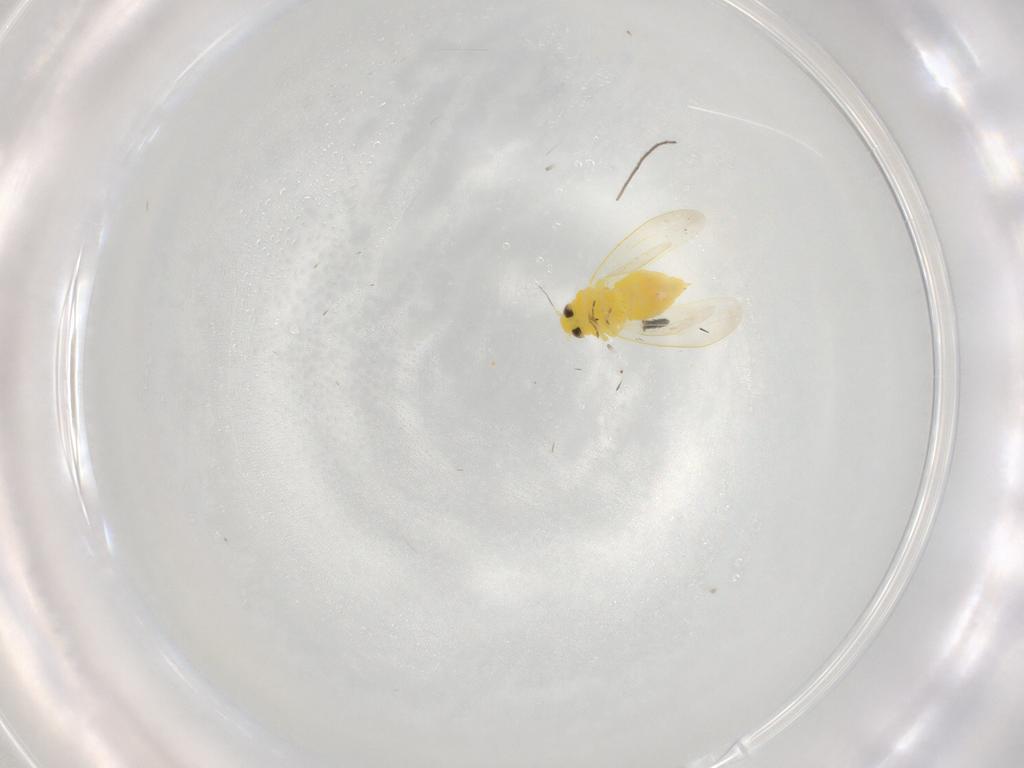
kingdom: Animalia
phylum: Arthropoda
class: Insecta
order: Hemiptera
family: Aleyrodidae
